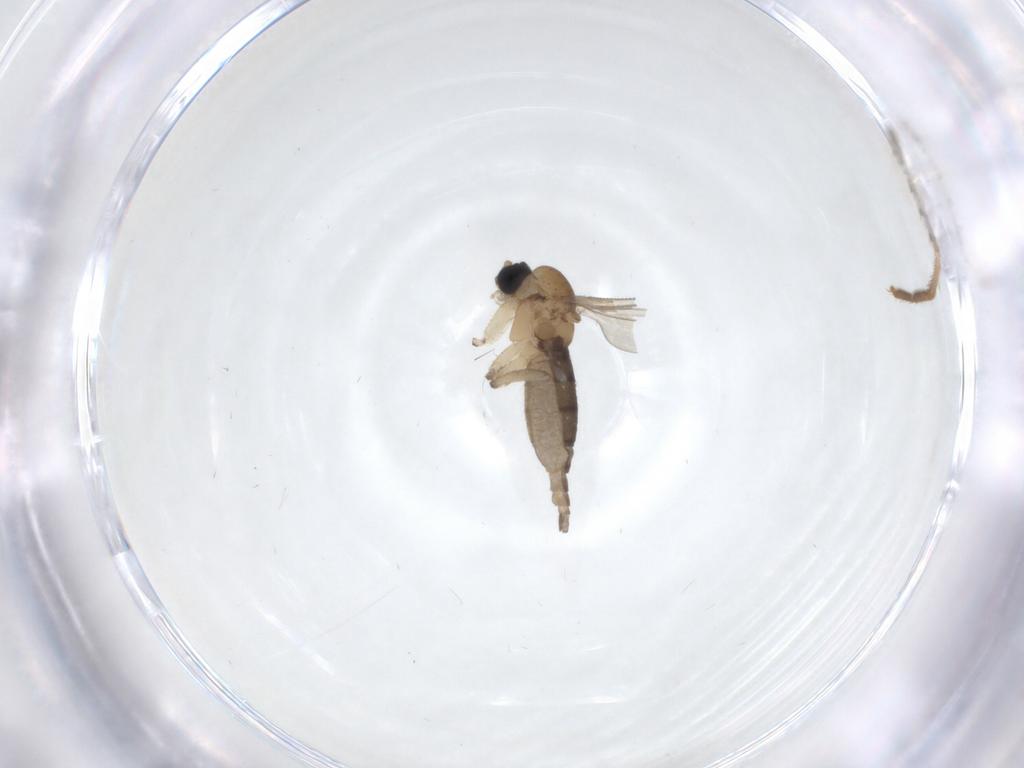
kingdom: Animalia
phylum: Arthropoda
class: Insecta
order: Diptera
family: Sciaridae
